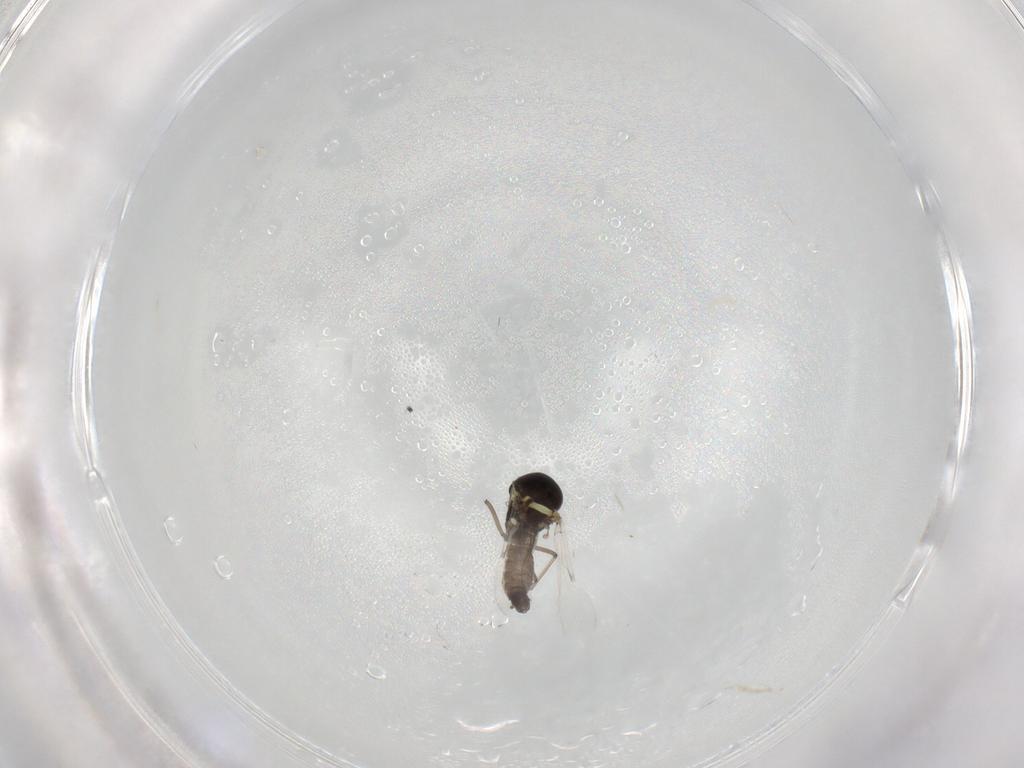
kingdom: Animalia
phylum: Arthropoda
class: Insecta
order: Diptera
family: Ceratopogonidae
